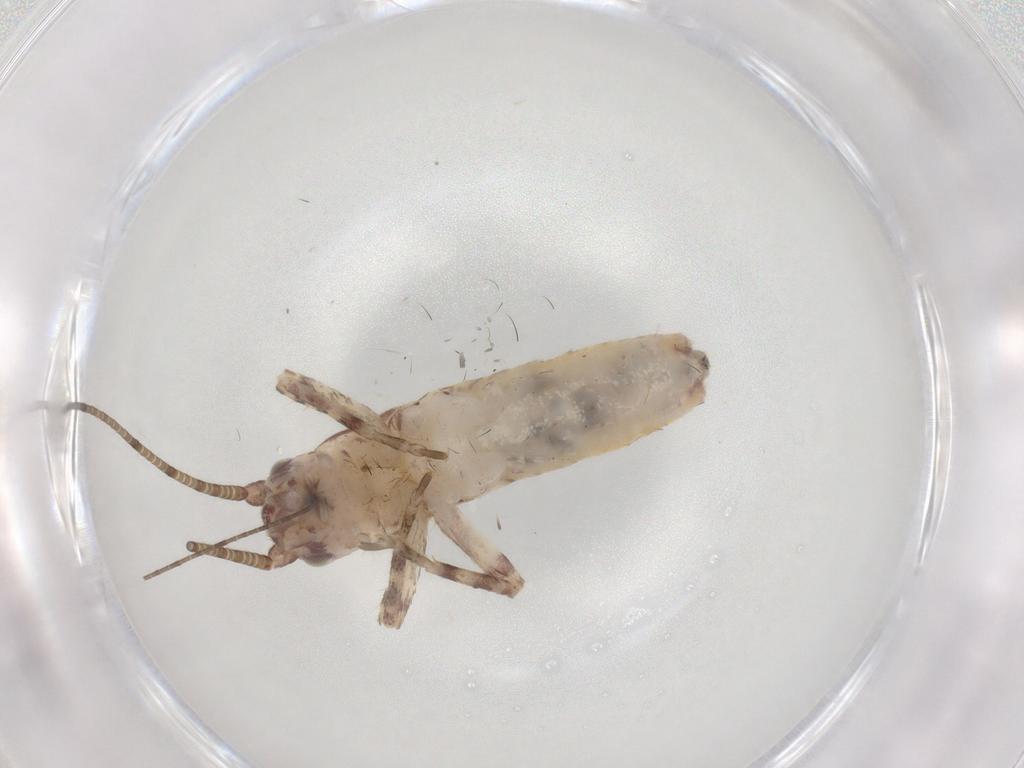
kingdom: Animalia
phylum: Arthropoda
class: Insecta
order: Orthoptera
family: Mogoplistidae
